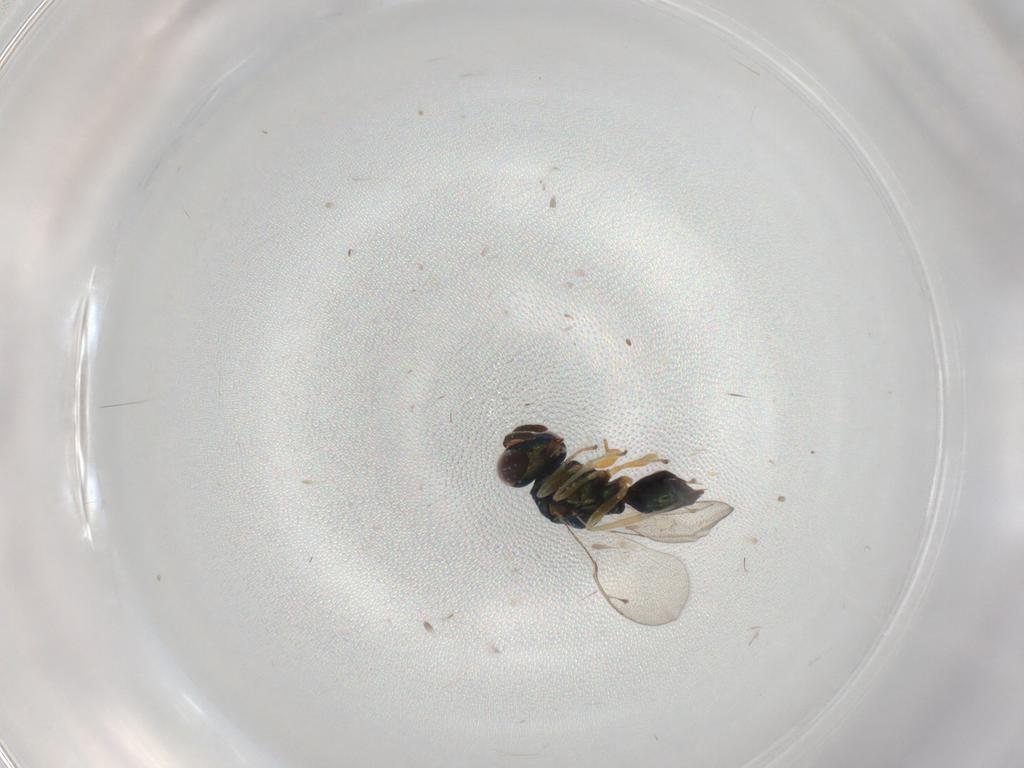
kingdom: Animalia
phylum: Arthropoda
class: Insecta
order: Hymenoptera
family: Pteromalidae
